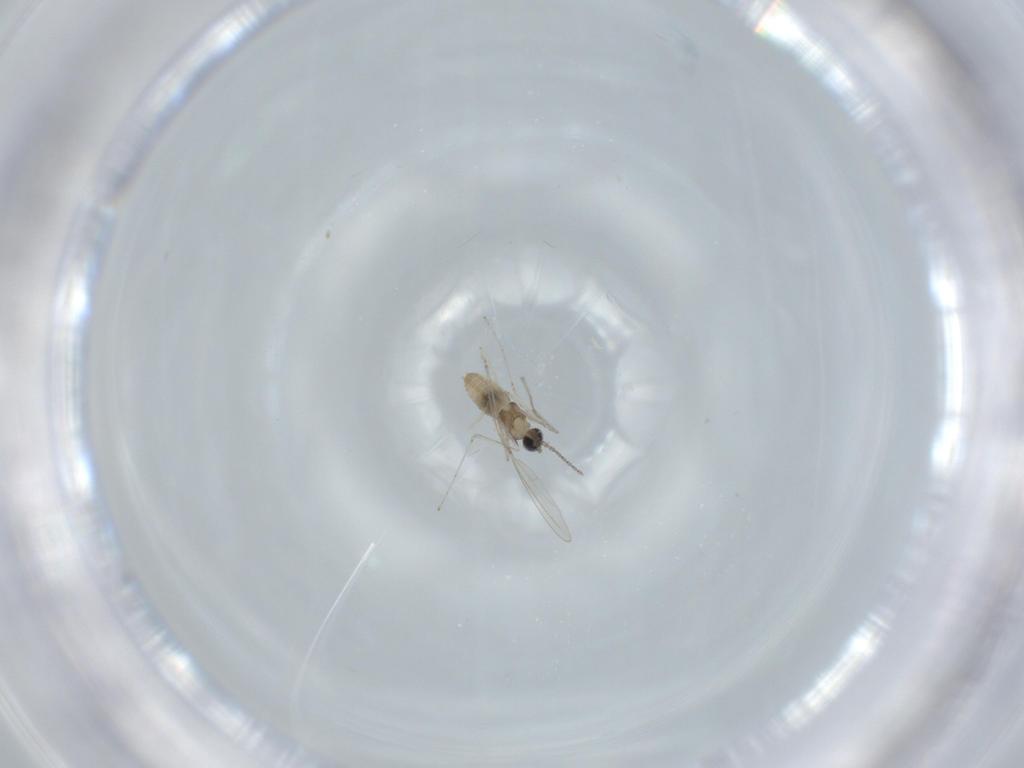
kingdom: Animalia
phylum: Arthropoda
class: Insecta
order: Diptera
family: Cecidomyiidae
